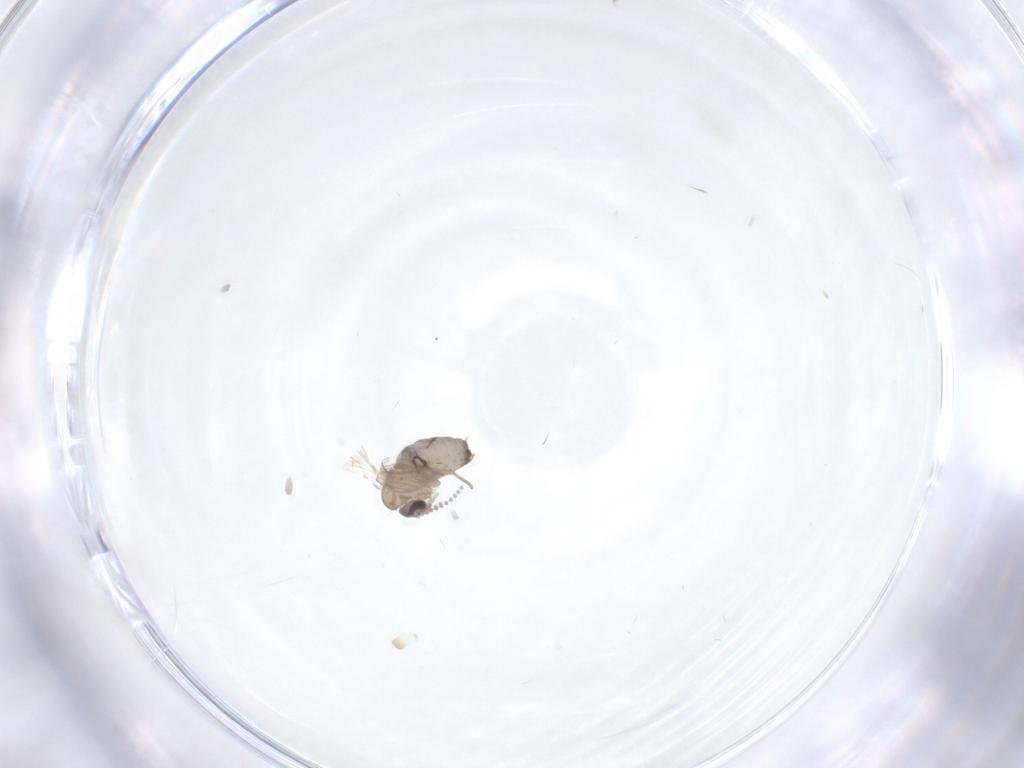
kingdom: Animalia
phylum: Arthropoda
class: Insecta
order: Diptera
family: Psychodidae
